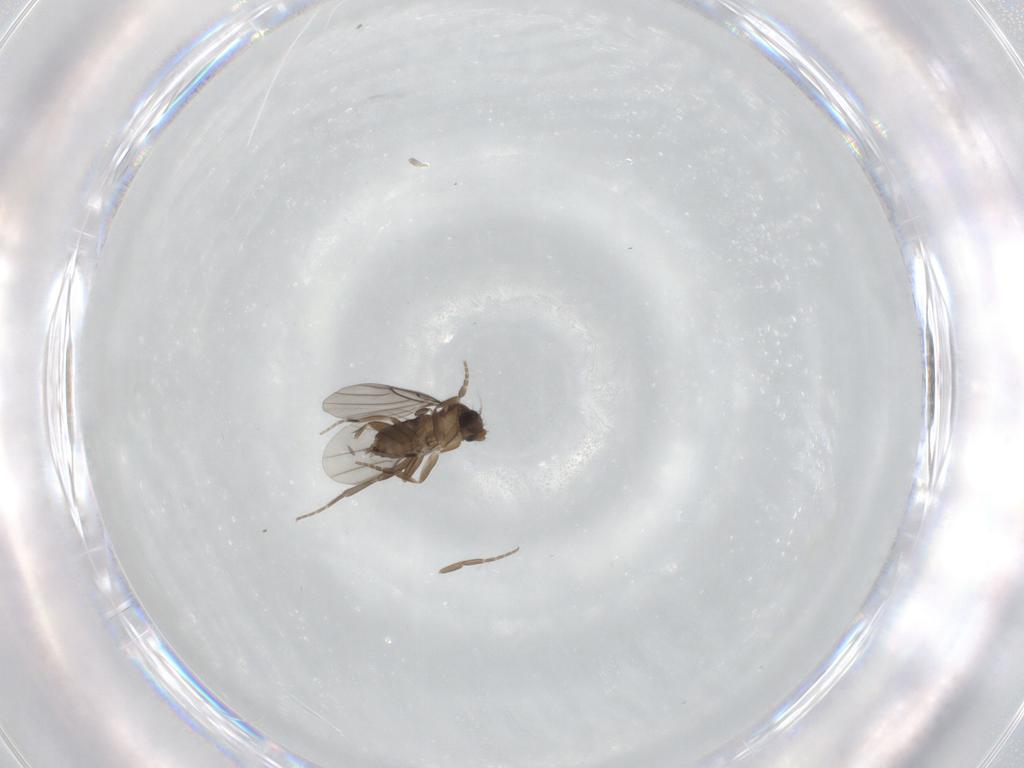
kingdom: Animalia
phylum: Arthropoda
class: Insecta
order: Diptera
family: Phoridae
